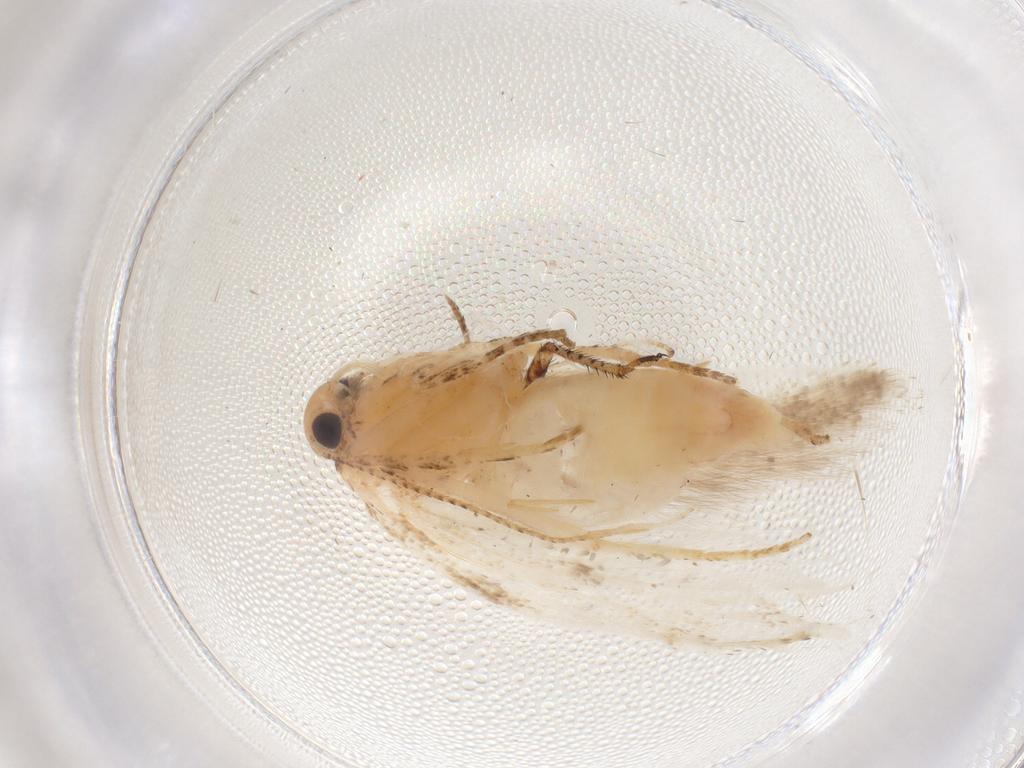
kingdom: Animalia
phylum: Arthropoda
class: Insecta
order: Lepidoptera
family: Gelechiidae
